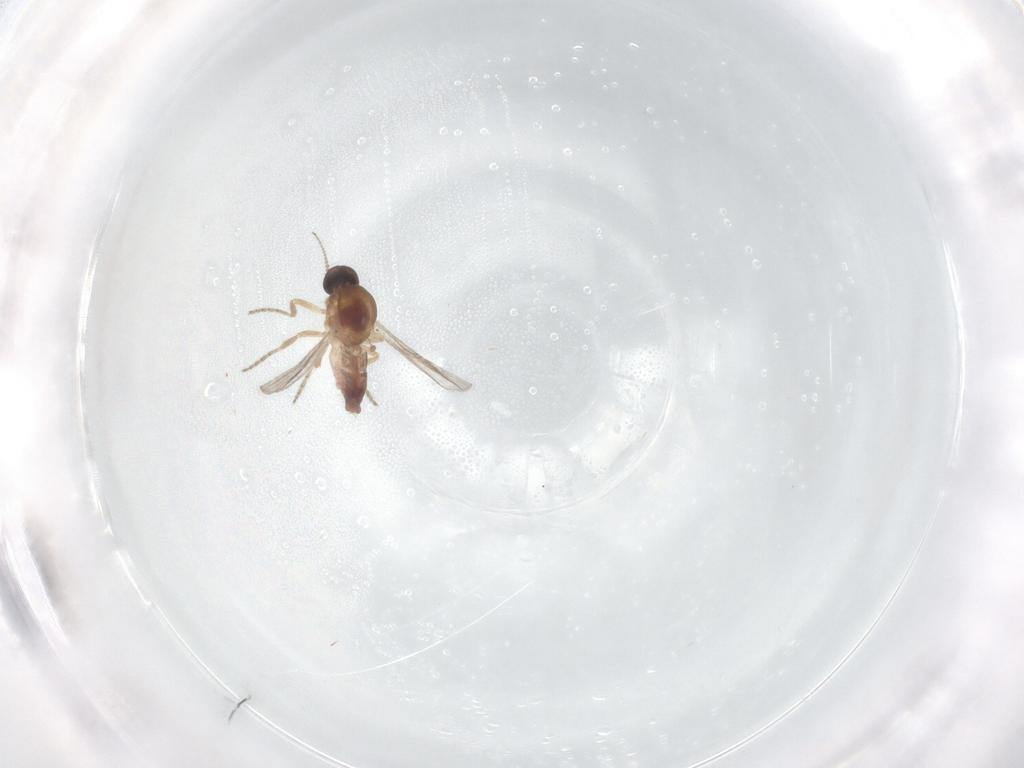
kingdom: Animalia
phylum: Arthropoda
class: Insecta
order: Diptera
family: Ceratopogonidae
